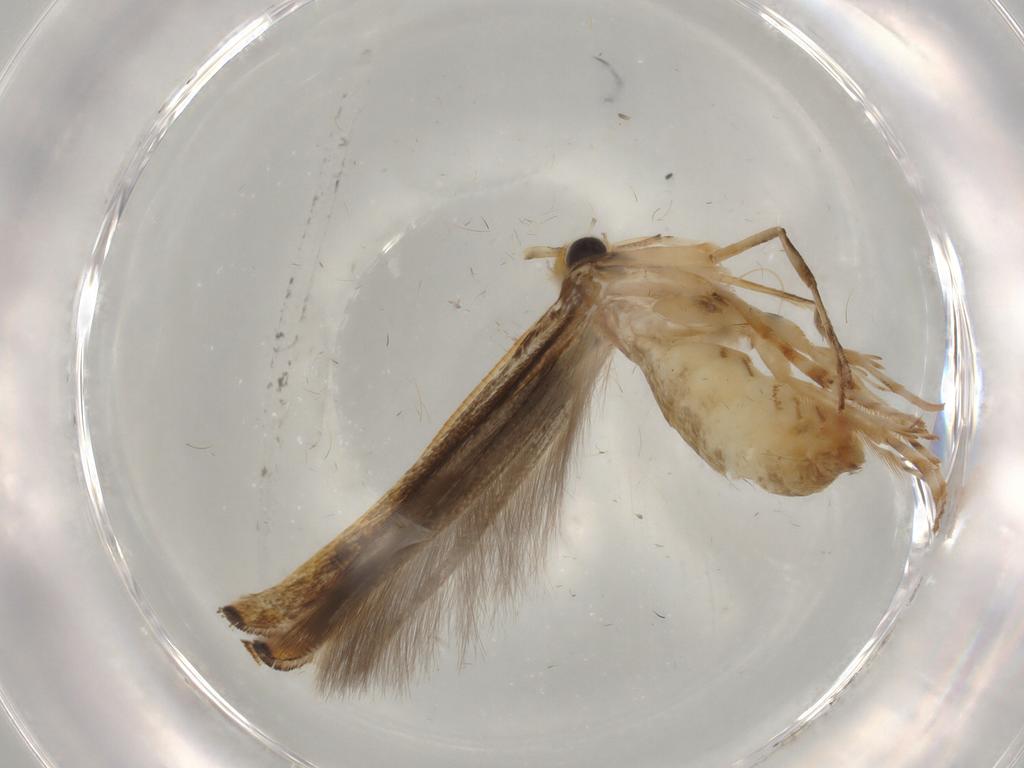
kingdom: Animalia
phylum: Arthropoda
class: Insecta
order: Lepidoptera
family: Gracillariidae
